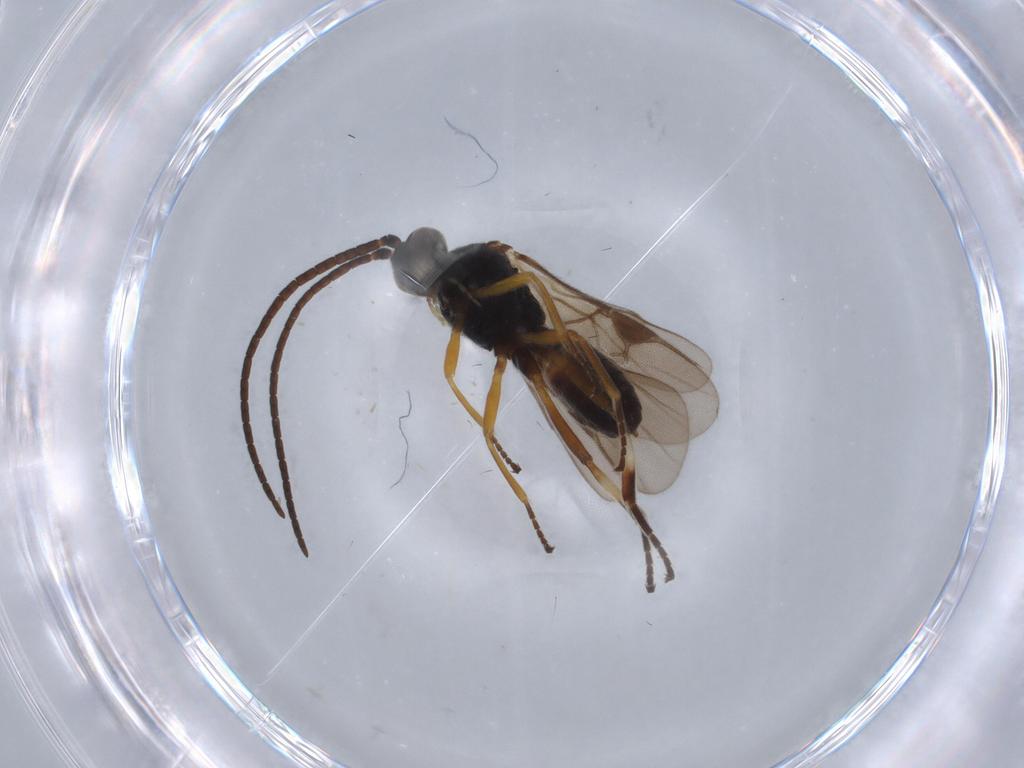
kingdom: Animalia
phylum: Arthropoda
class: Insecta
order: Hymenoptera
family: Braconidae
